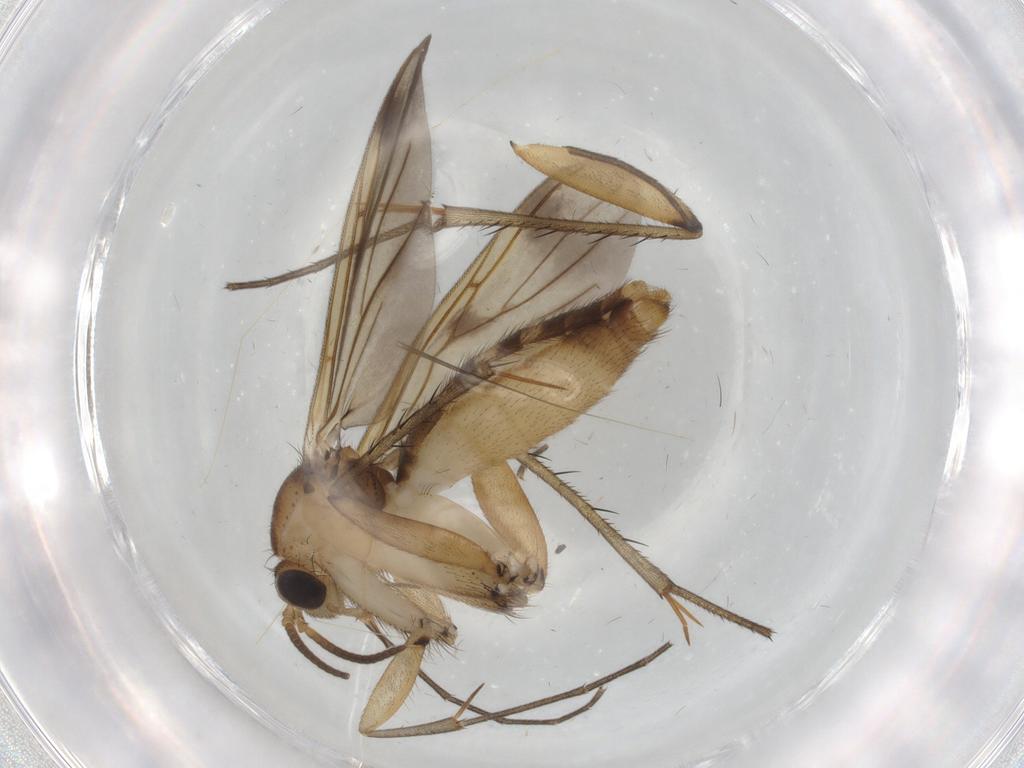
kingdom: Animalia
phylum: Arthropoda
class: Insecta
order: Diptera
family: Mycetophilidae
